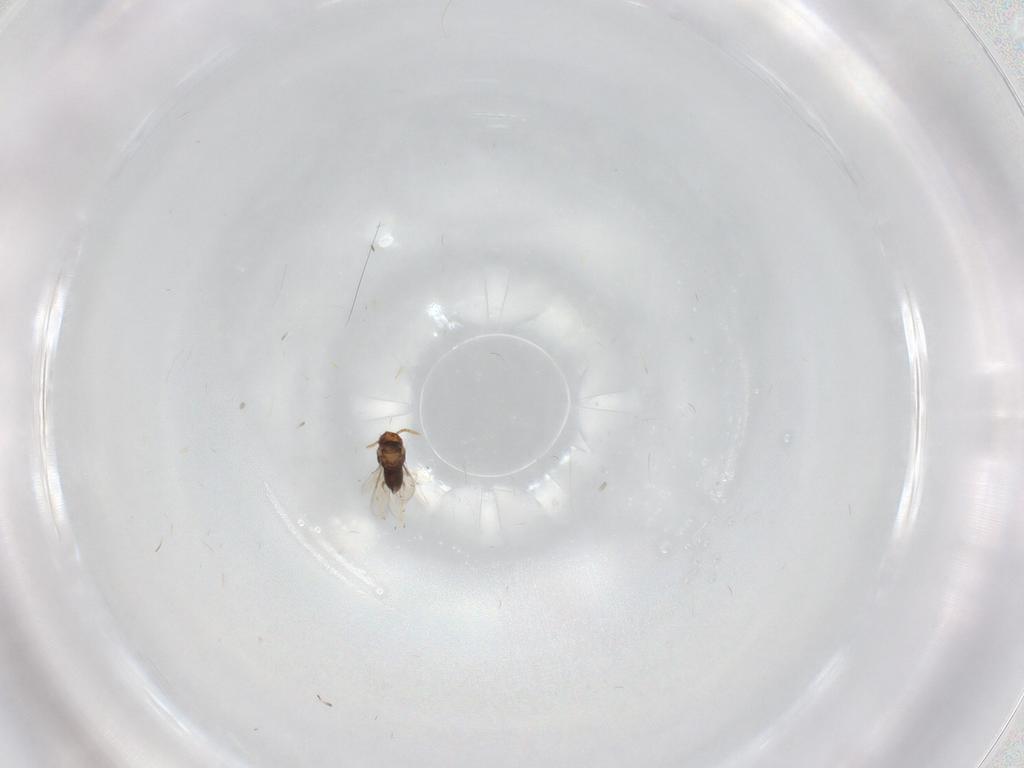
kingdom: Animalia
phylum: Arthropoda
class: Insecta
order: Hymenoptera
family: Aphelinidae
